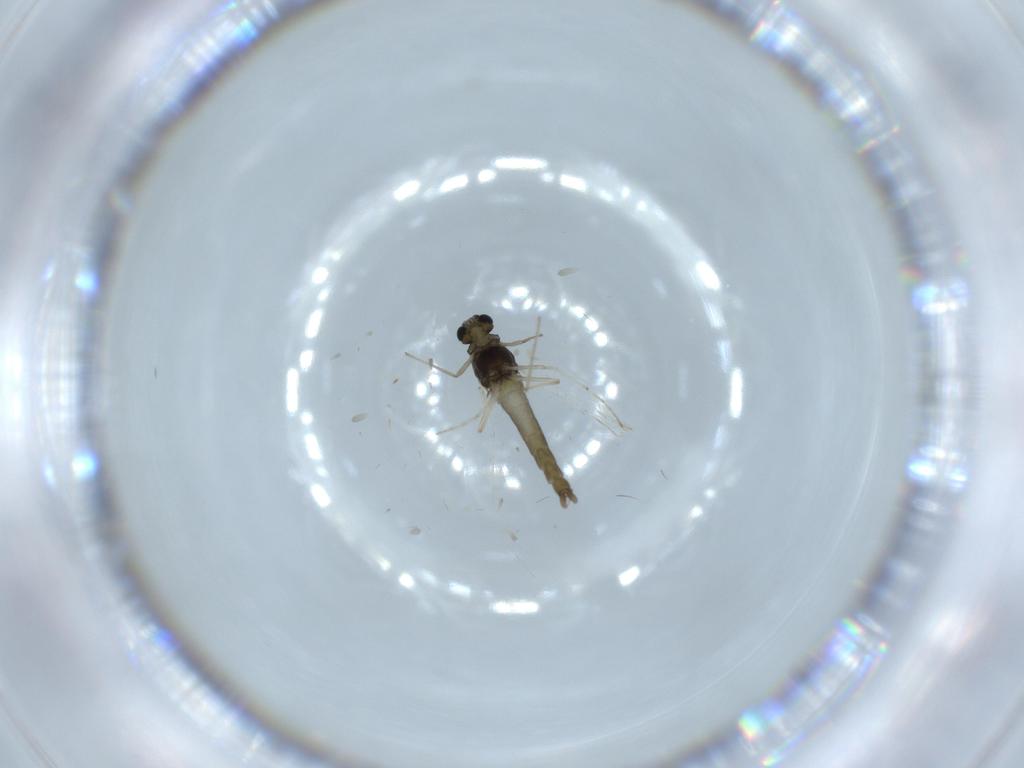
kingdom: Animalia
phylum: Arthropoda
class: Insecta
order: Diptera
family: Chironomidae
